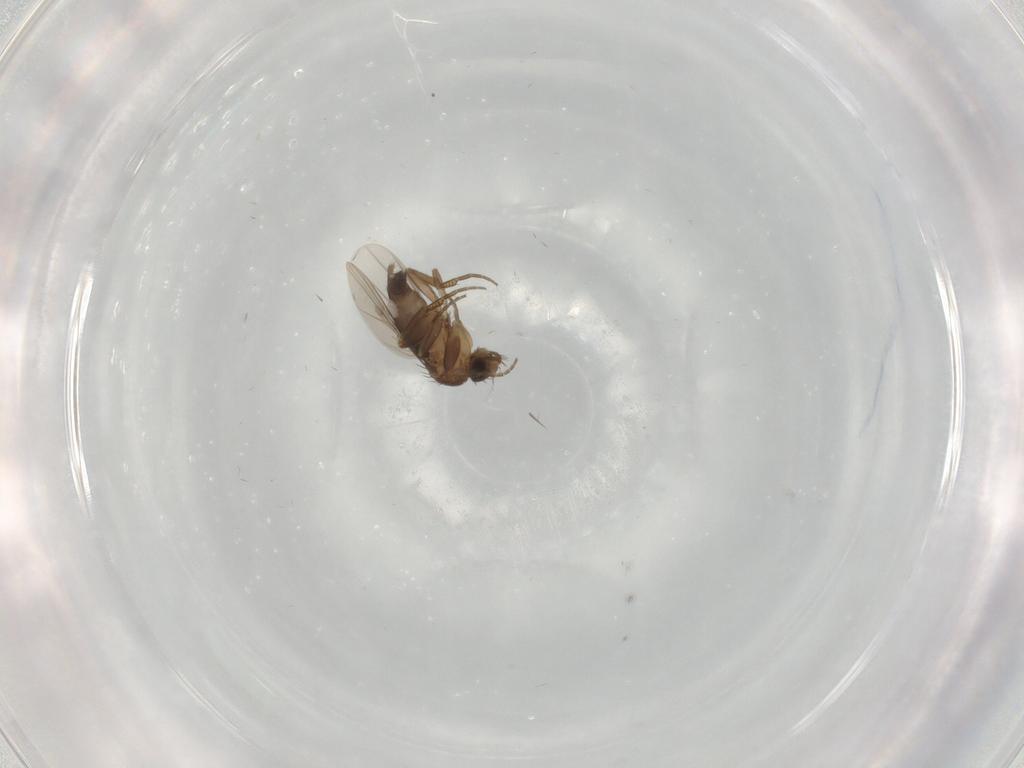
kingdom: Animalia
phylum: Arthropoda
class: Insecta
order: Diptera
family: Phoridae
